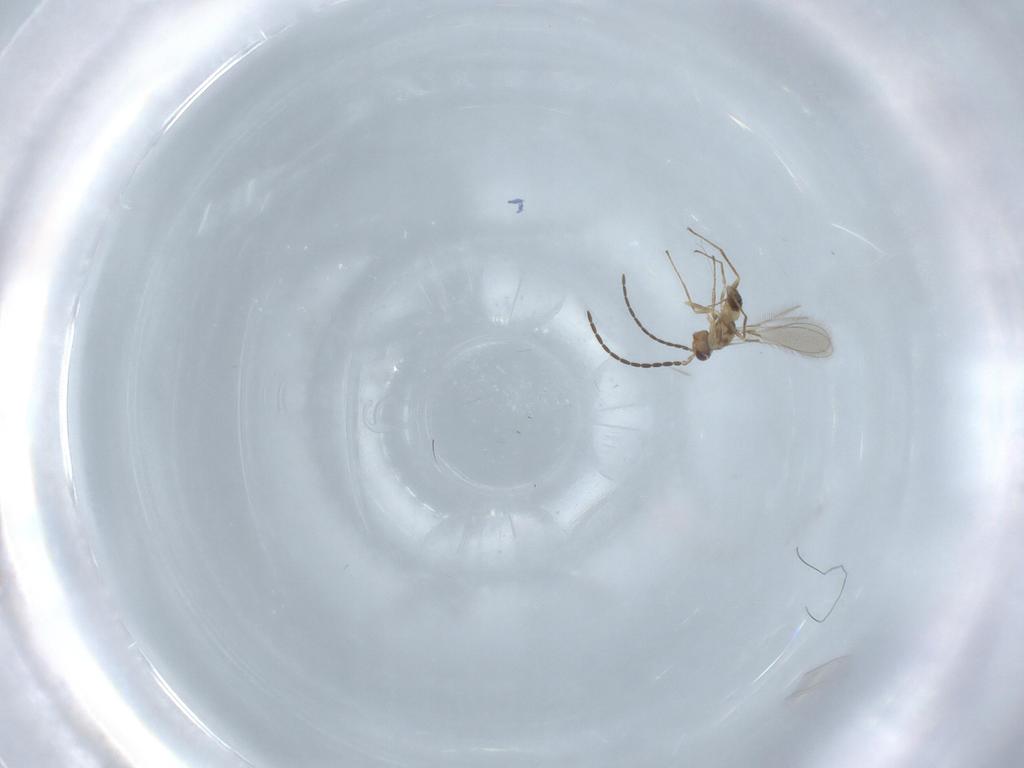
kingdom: Animalia
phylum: Arthropoda
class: Insecta
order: Hymenoptera
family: Mymaridae
